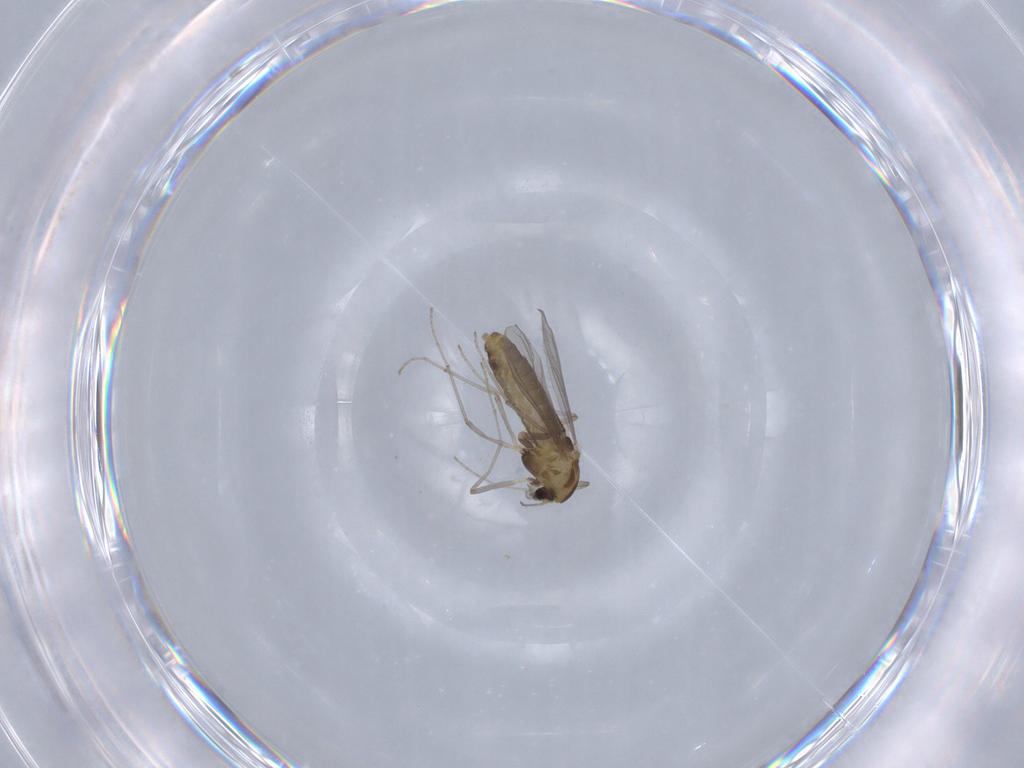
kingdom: Animalia
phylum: Arthropoda
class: Insecta
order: Diptera
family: Chironomidae
